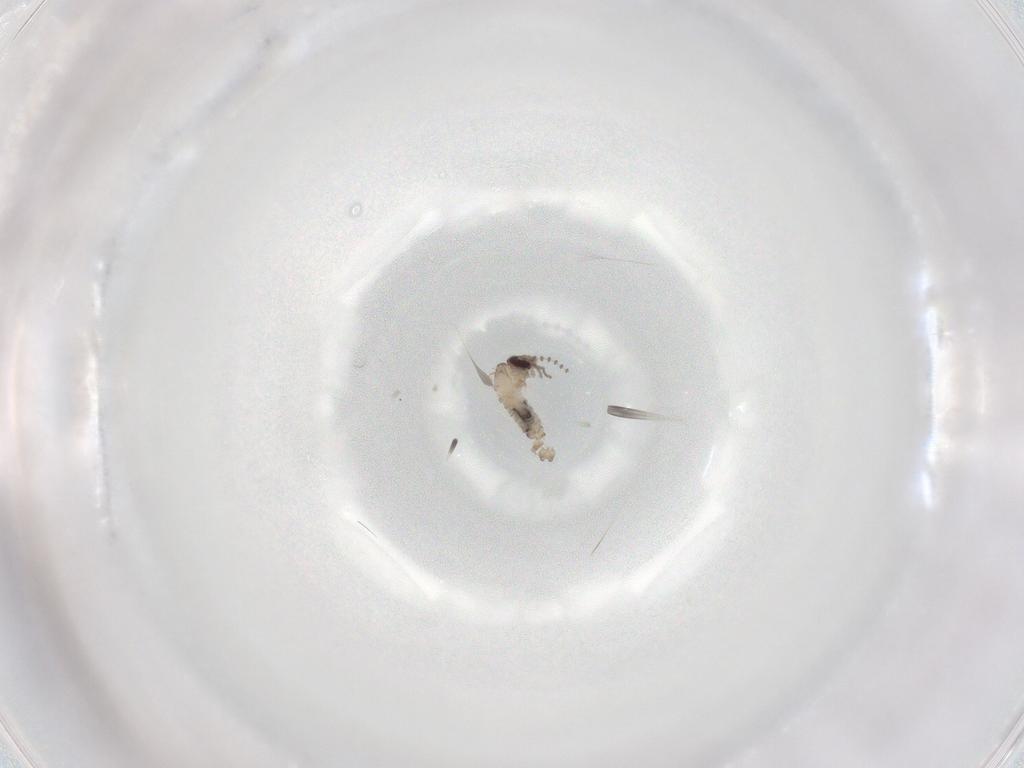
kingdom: Animalia
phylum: Arthropoda
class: Insecta
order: Diptera
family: Psychodidae
